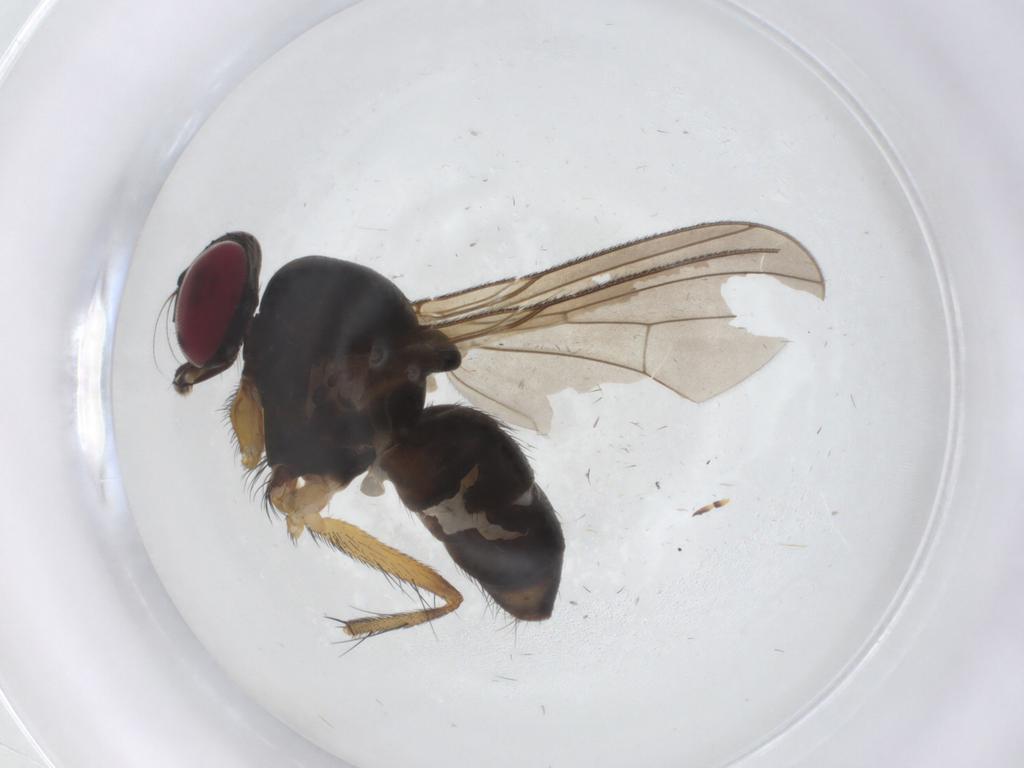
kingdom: Animalia
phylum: Arthropoda
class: Insecta
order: Diptera
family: Anthomyiidae
